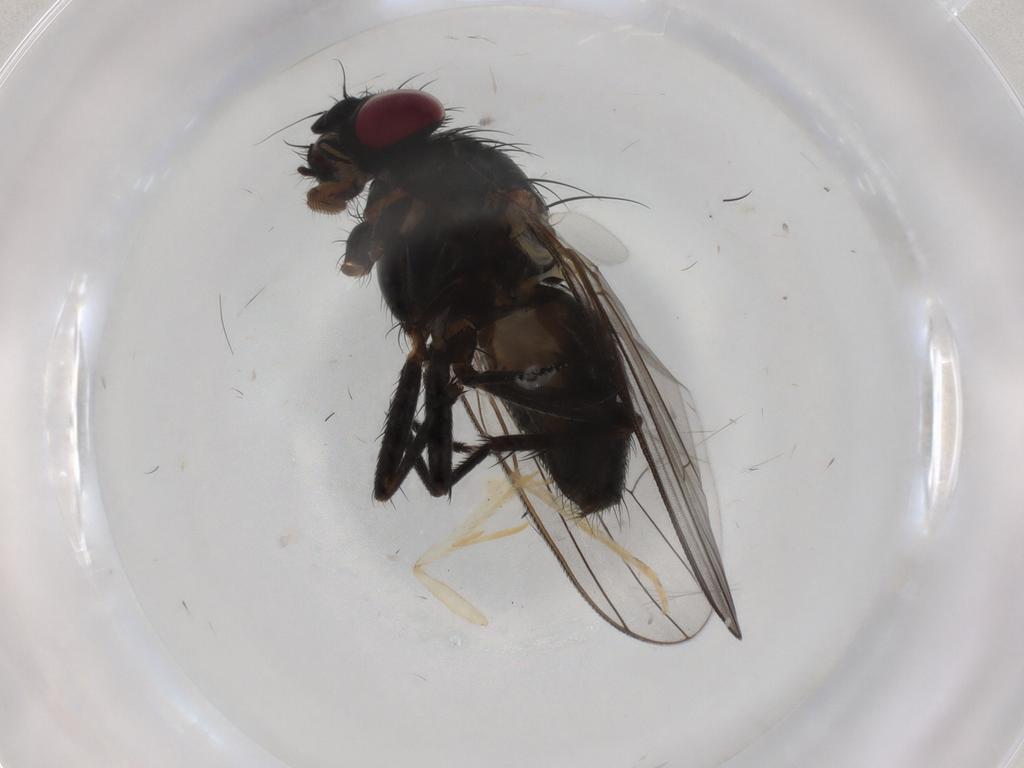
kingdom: Animalia
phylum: Arthropoda
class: Insecta
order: Diptera
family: Fannia
